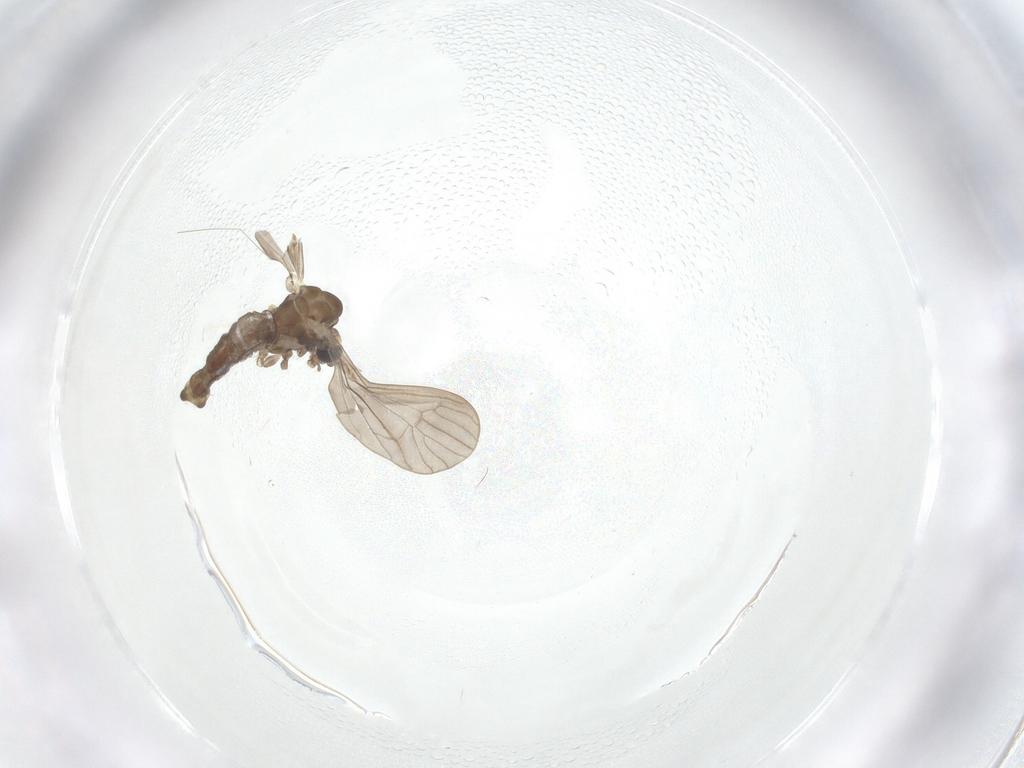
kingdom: Animalia
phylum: Arthropoda
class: Insecta
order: Diptera
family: Limoniidae
